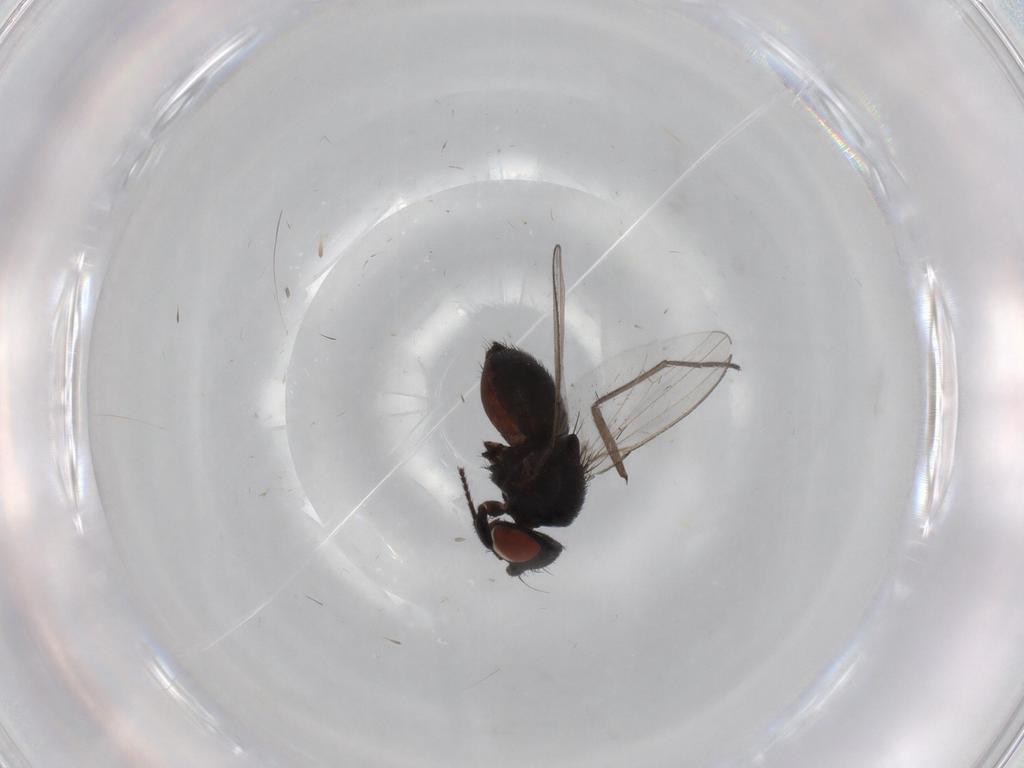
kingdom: Animalia
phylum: Arthropoda
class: Insecta
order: Diptera
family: Milichiidae
